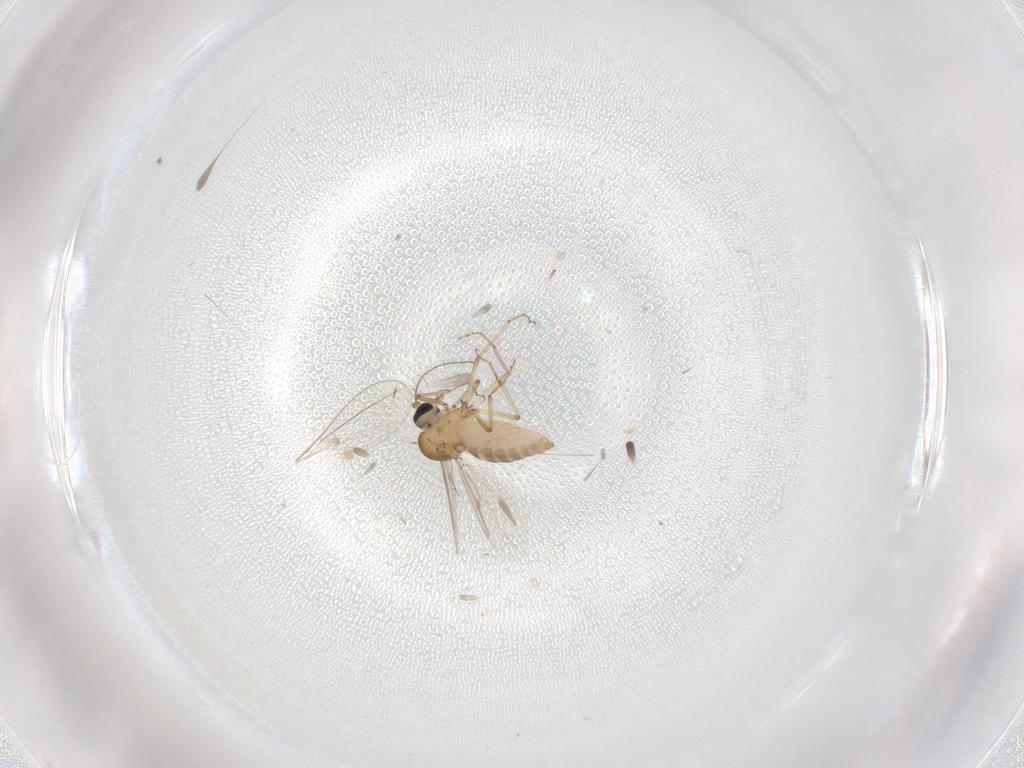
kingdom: Animalia
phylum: Arthropoda
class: Insecta
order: Diptera
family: Ceratopogonidae
